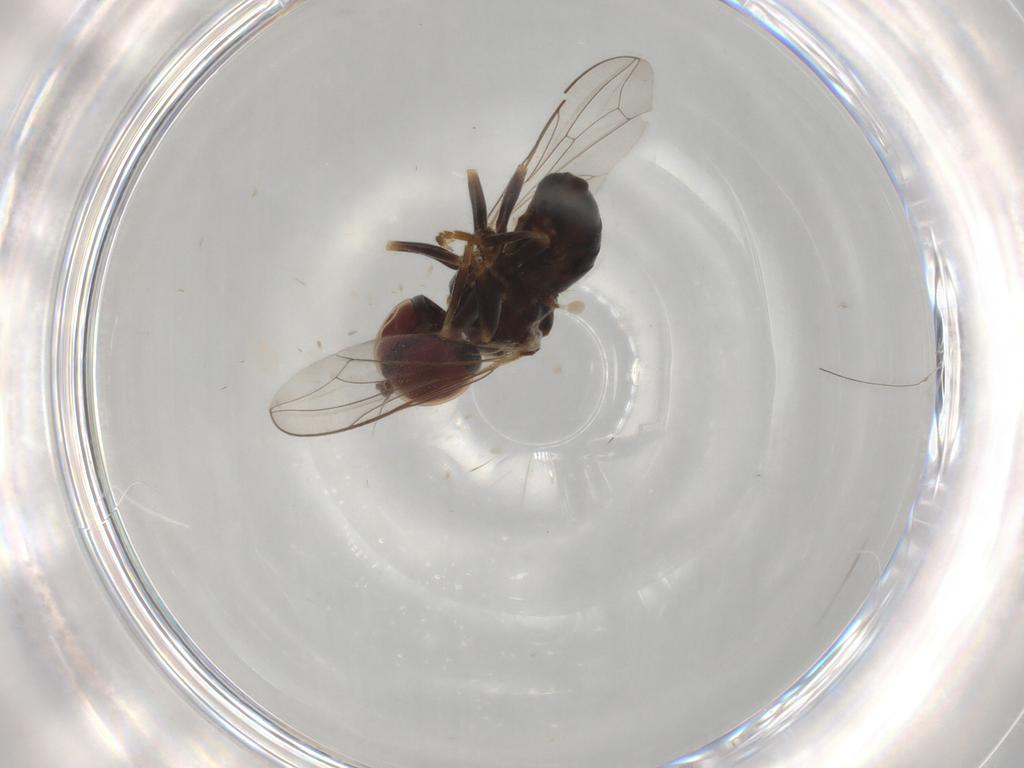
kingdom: Animalia
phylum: Arthropoda
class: Insecta
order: Diptera
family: Pipunculidae
